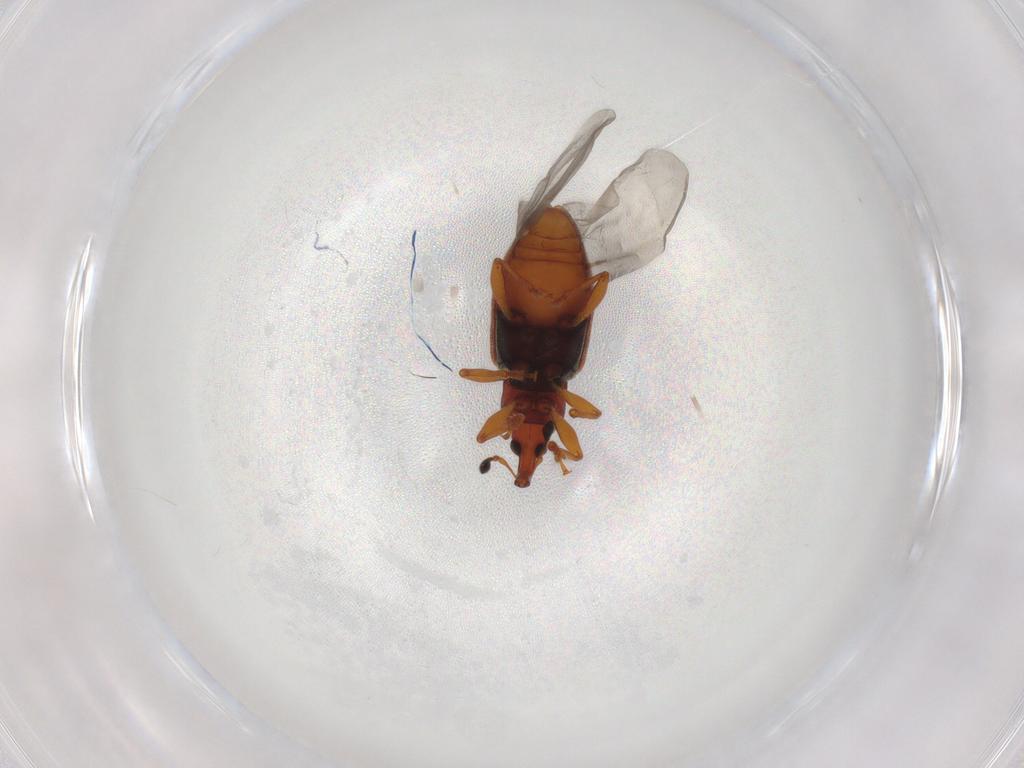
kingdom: Animalia
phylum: Arthropoda
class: Insecta
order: Coleoptera
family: Curculionidae
